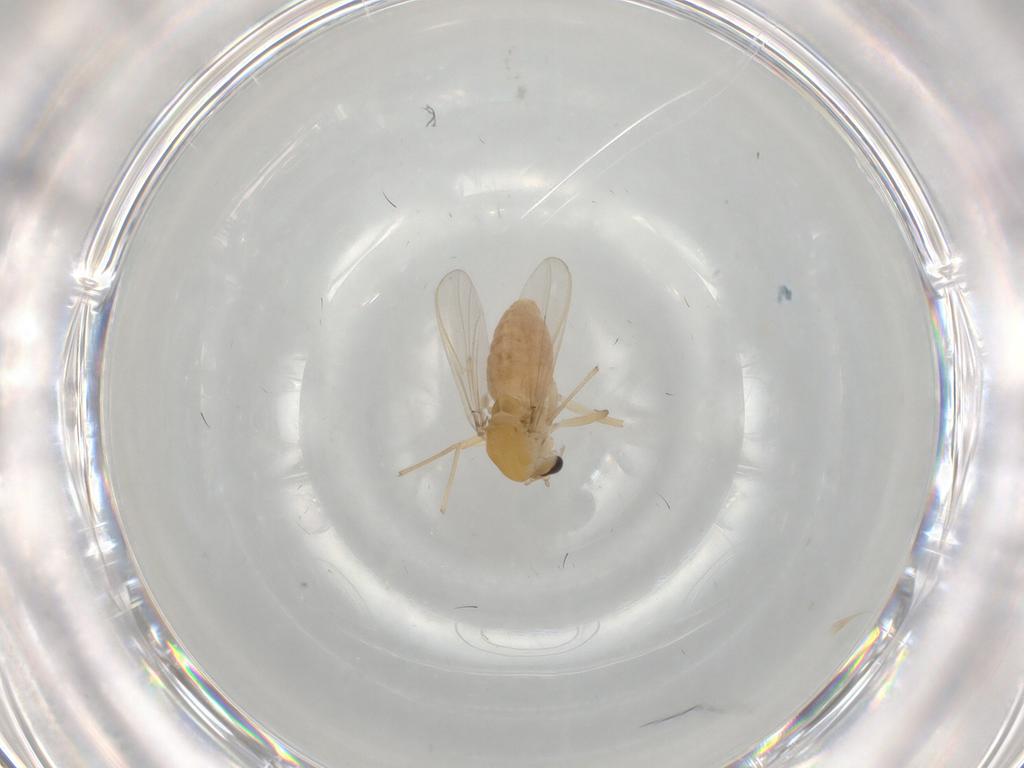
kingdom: Animalia
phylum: Arthropoda
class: Insecta
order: Diptera
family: Chironomidae
